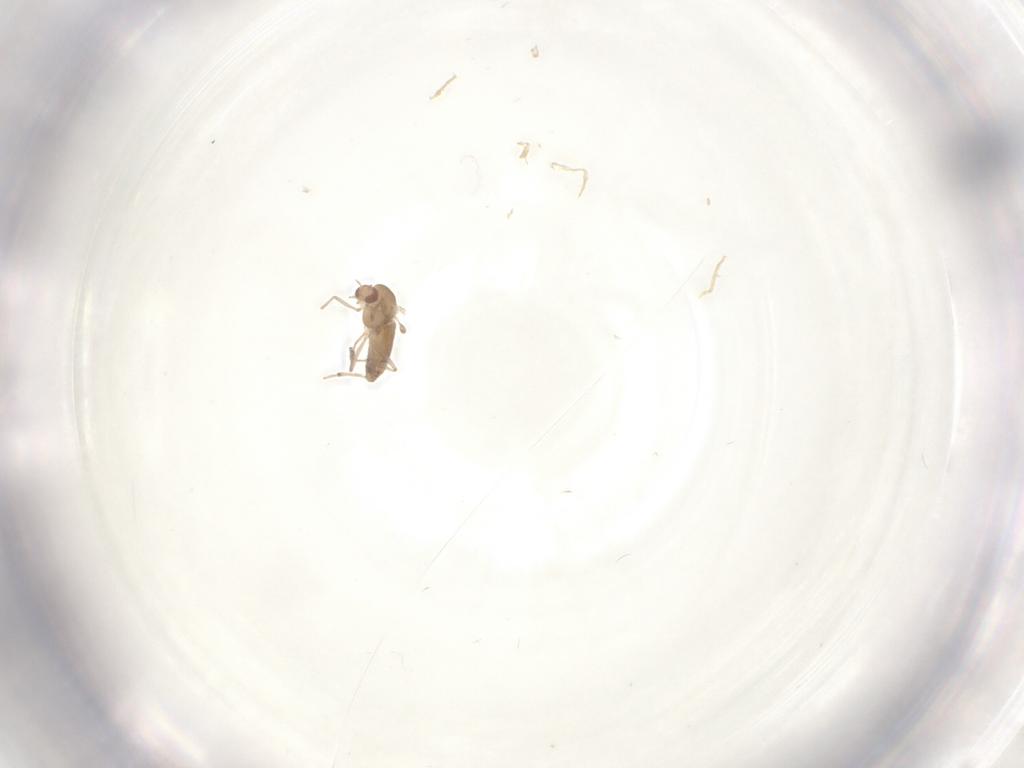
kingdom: Animalia
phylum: Arthropoda
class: Insecta
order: Diptera
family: Chironomidae
